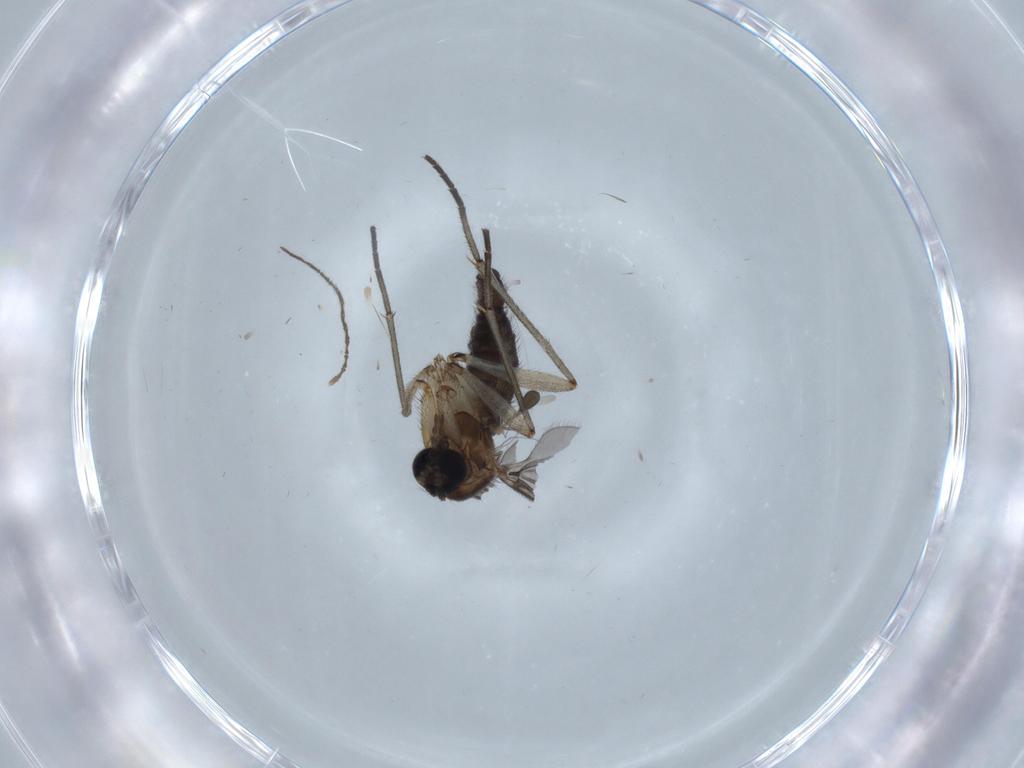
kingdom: Animalia
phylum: Arthropoda
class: Insecta
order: Diptera
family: Sciaridae
